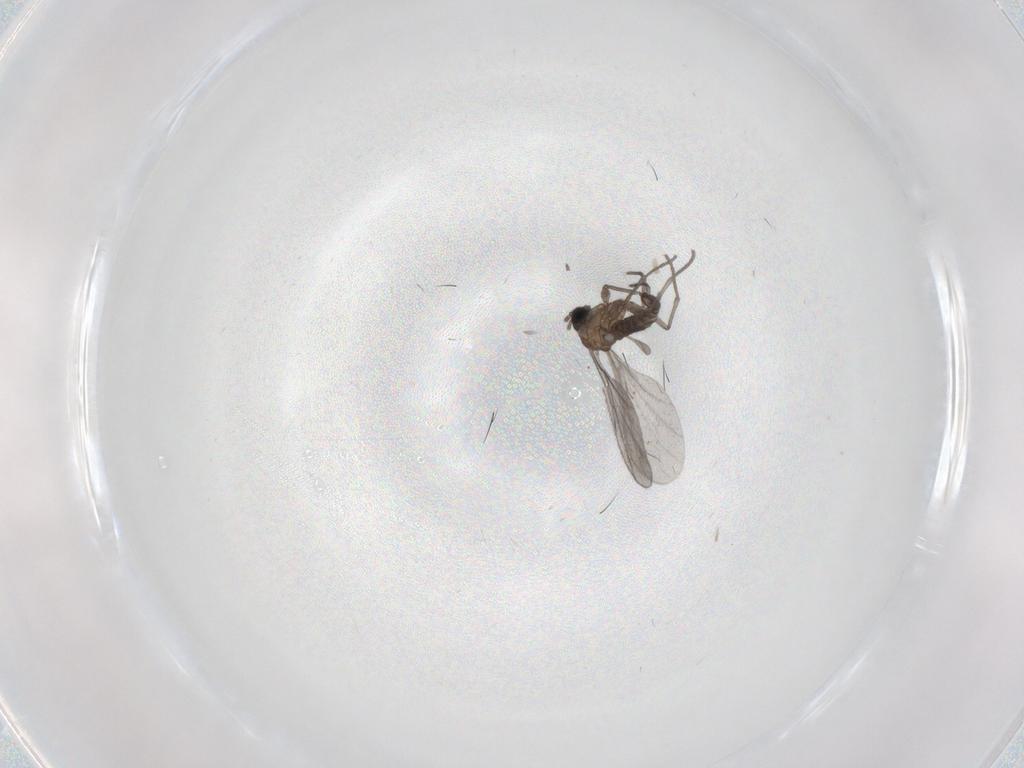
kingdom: Animalia
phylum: Arthropoda
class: Insecta
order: Diptera
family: Sciaridae
